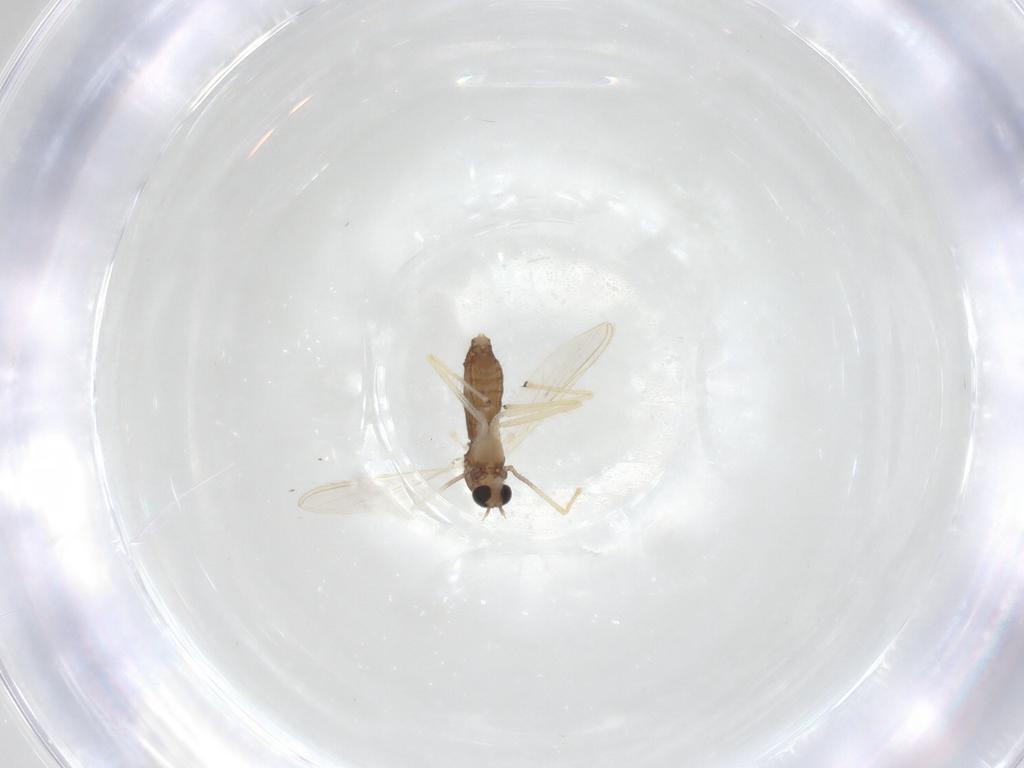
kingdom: Animalia
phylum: Arthropoda
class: Insecta
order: Diptera
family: Chironomidae
